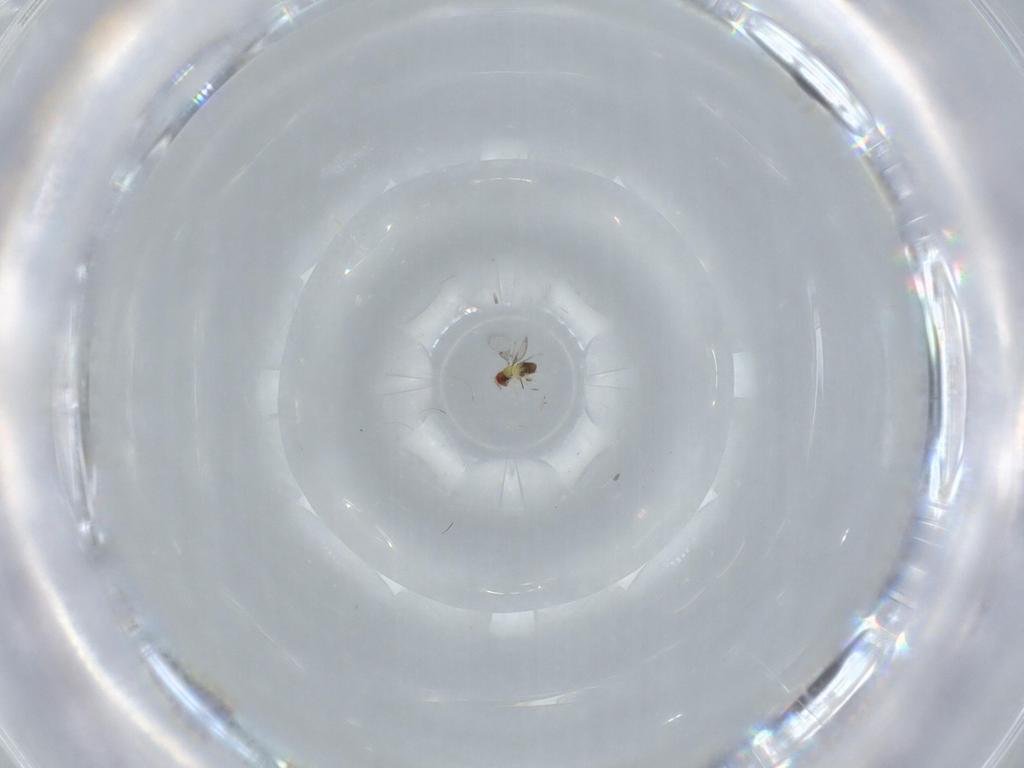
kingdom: Animalia
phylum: Arthropoda
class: Insecta
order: Hymenoptera
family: Trichogrammatidae
